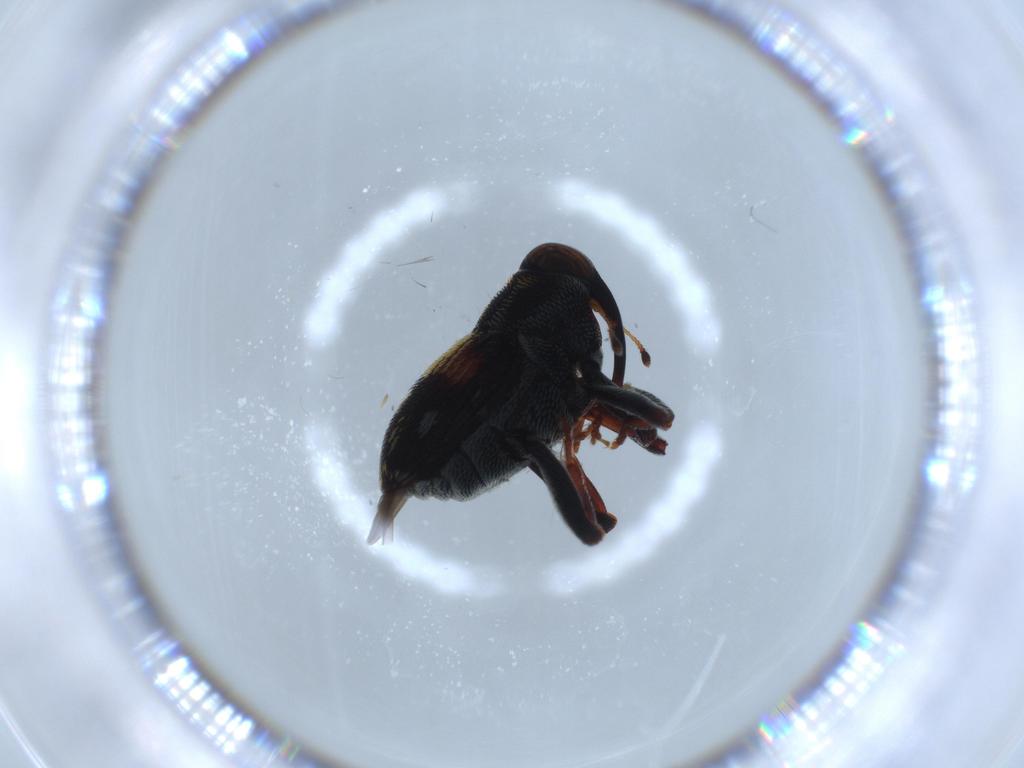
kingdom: Animalia
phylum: Arthropoda
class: Insecta
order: Coleoptera
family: Curculionidae
